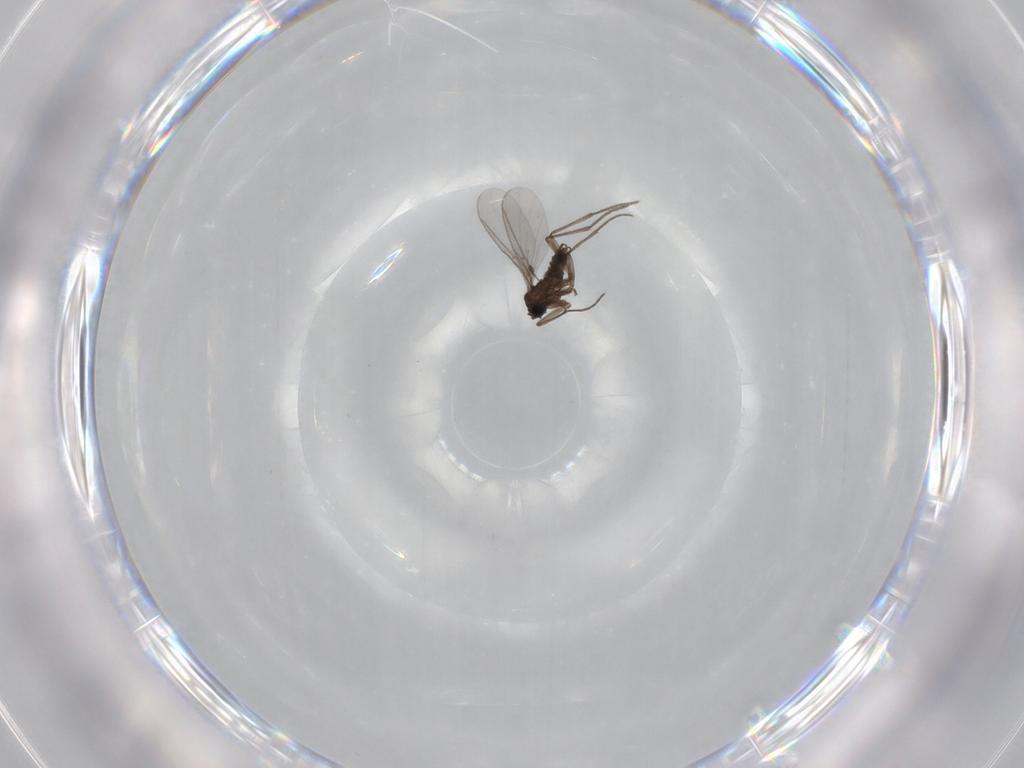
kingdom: Animalia
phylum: Arthropoda
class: Insecta
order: Diptera
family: Sciaridae
